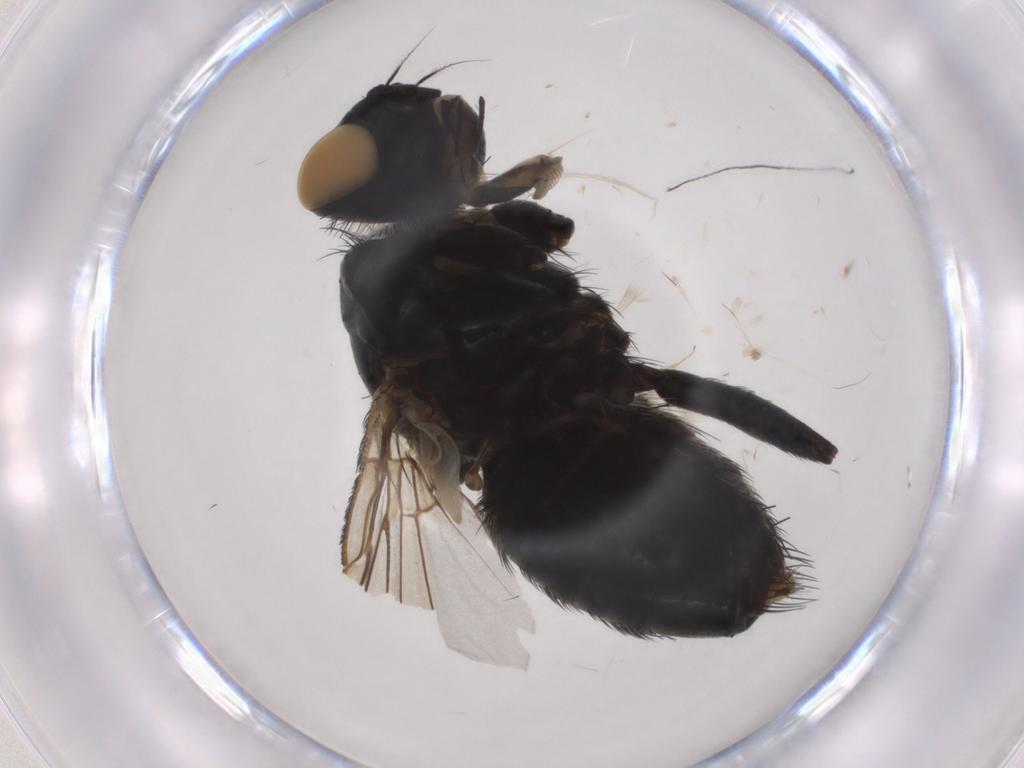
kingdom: Animalia
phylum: Arthropoda
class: Insecta
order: Diptera
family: Sarcophagidae
